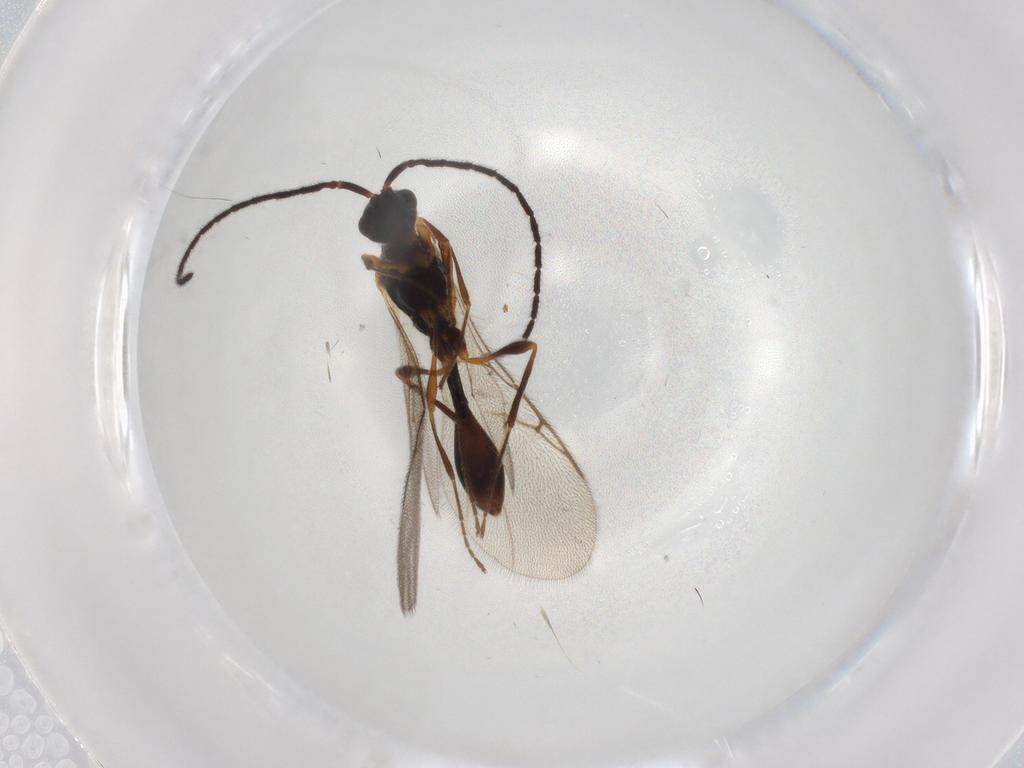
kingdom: Animalia
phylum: Arthropoda
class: Insecta
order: Hymenoptera
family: Diapriidae
